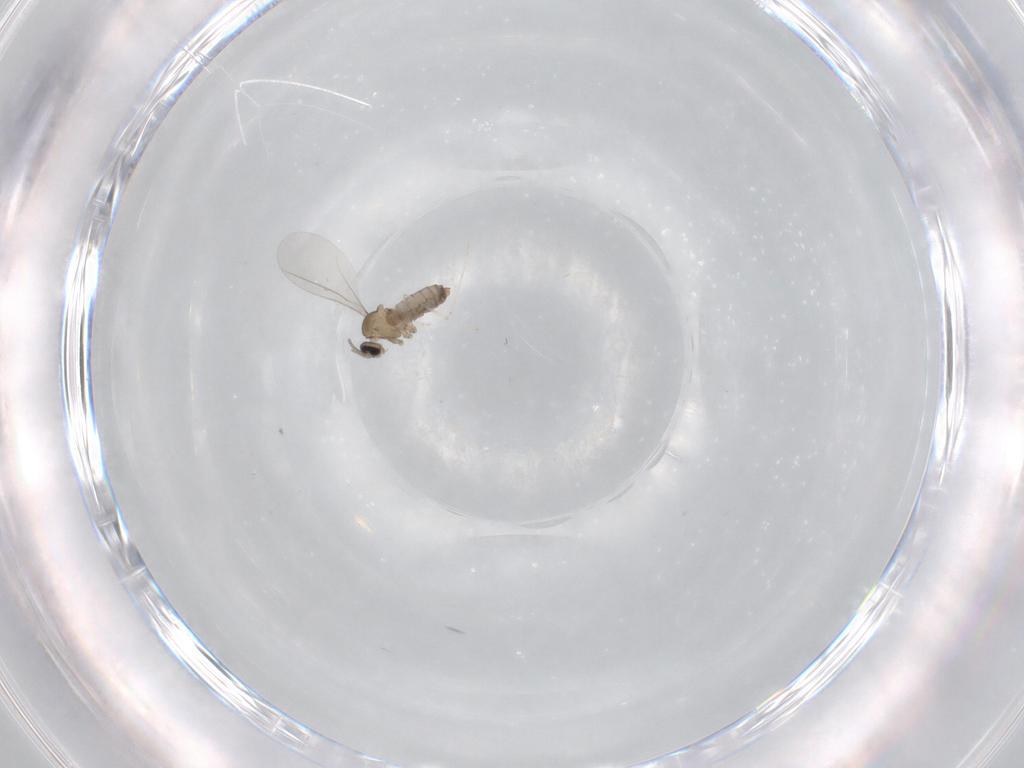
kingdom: Animalia
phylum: Arthropoda
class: Insecta
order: Diptera
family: Cecidomyiidae
